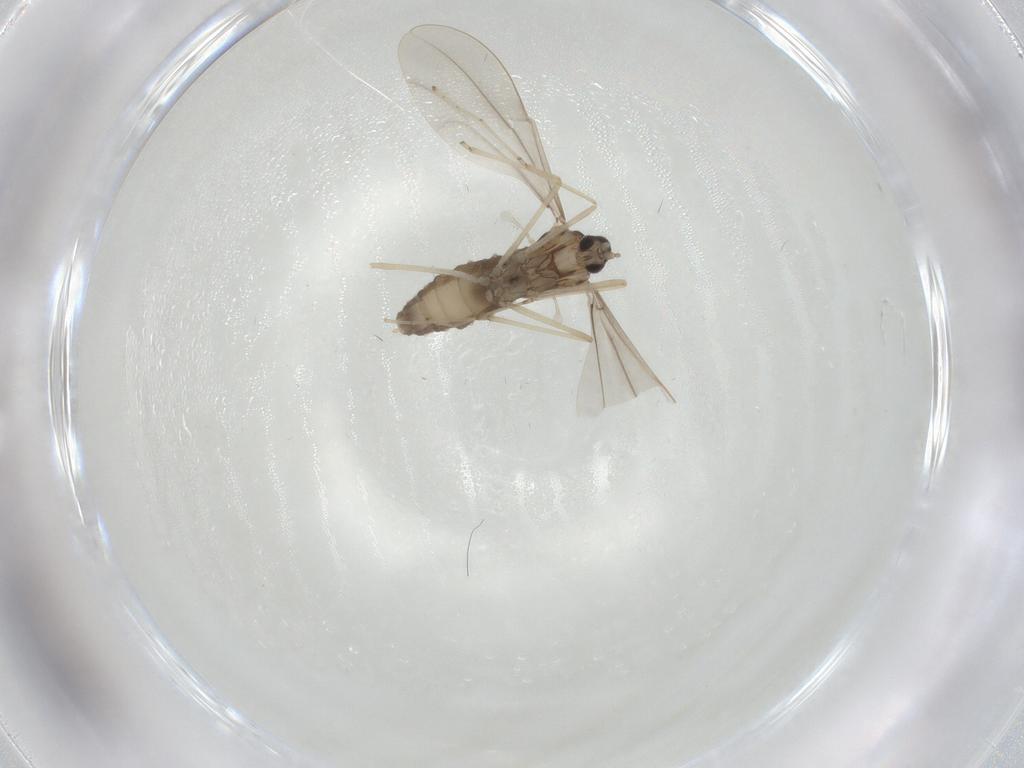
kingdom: Animalia
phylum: Arthropoda
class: Insecta
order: Diptera
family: Cecidomyiidae
